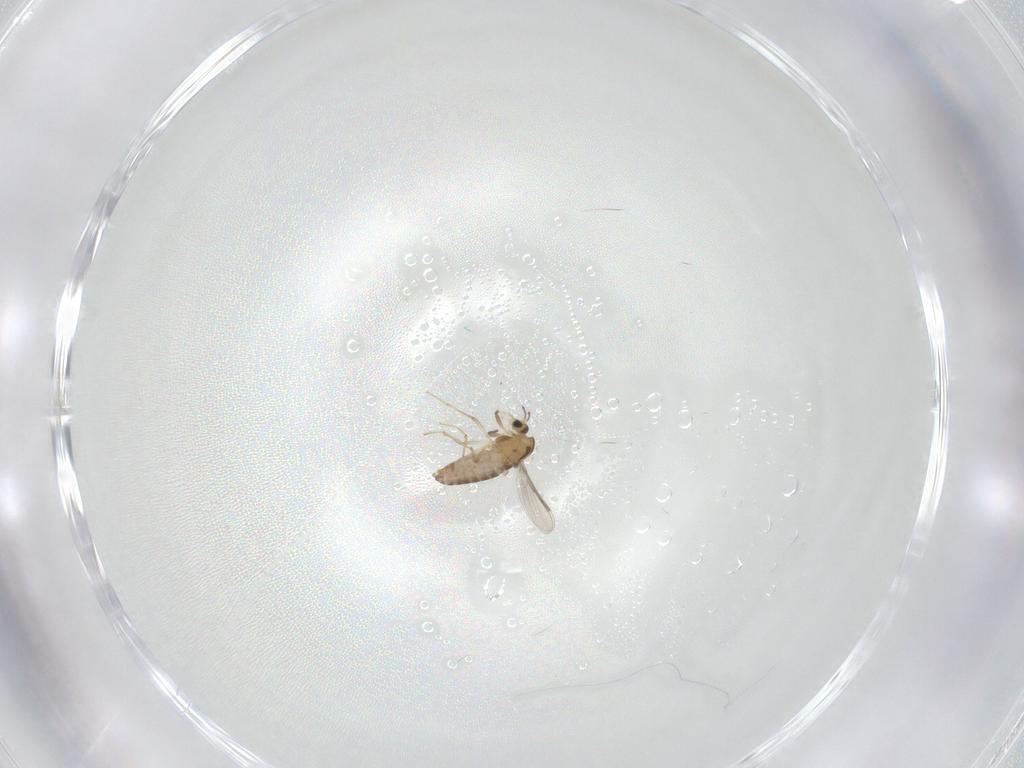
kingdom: Animalia
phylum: Arthropoda
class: Insecta
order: Diptera
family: Chironomidae
